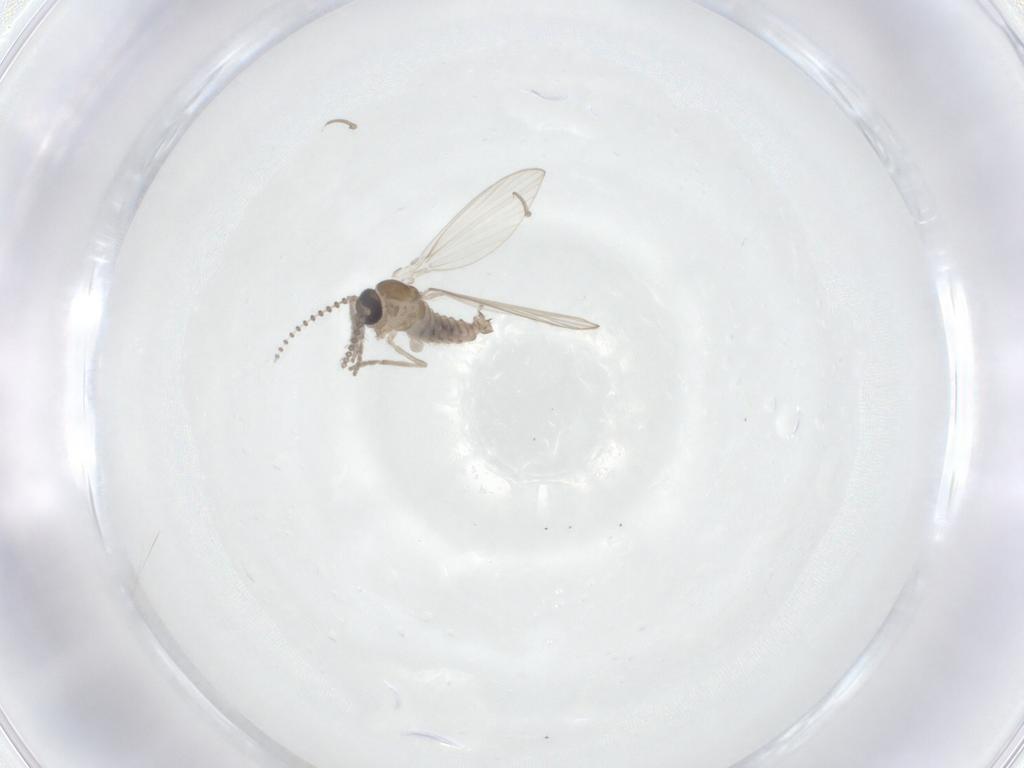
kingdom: Animalia
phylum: Arthropoda
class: Insecta
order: Diptera
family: Psychodidae
